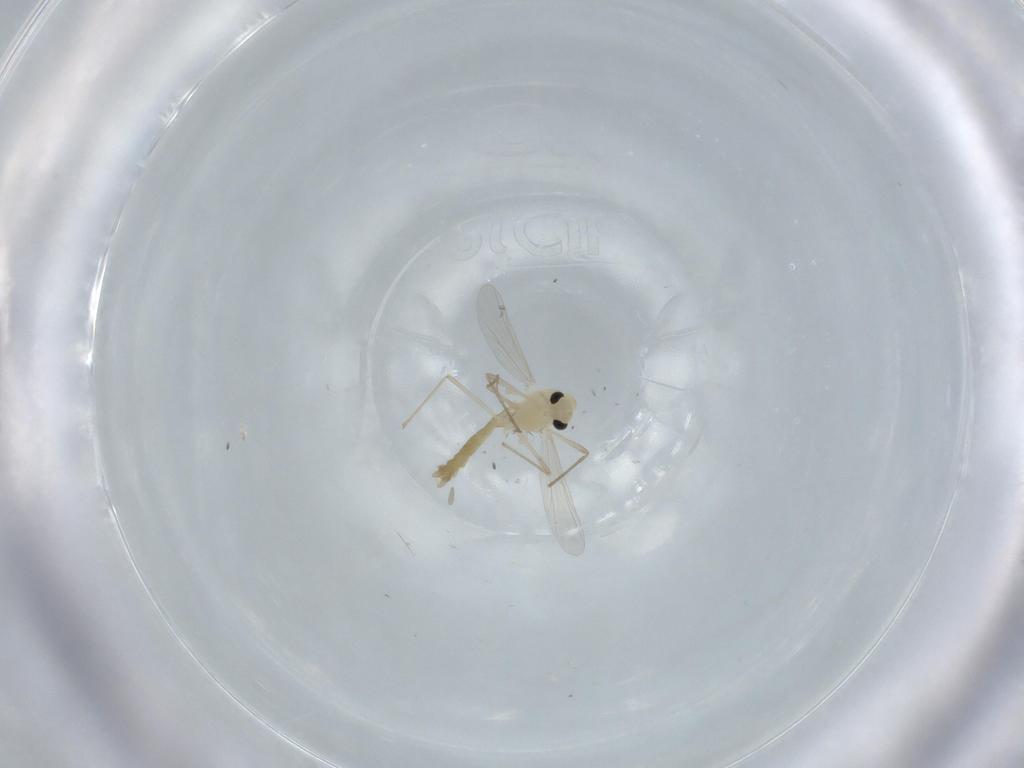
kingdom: Animalia
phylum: Arthropoda
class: Insecta
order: Diptera
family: Chironomidae
